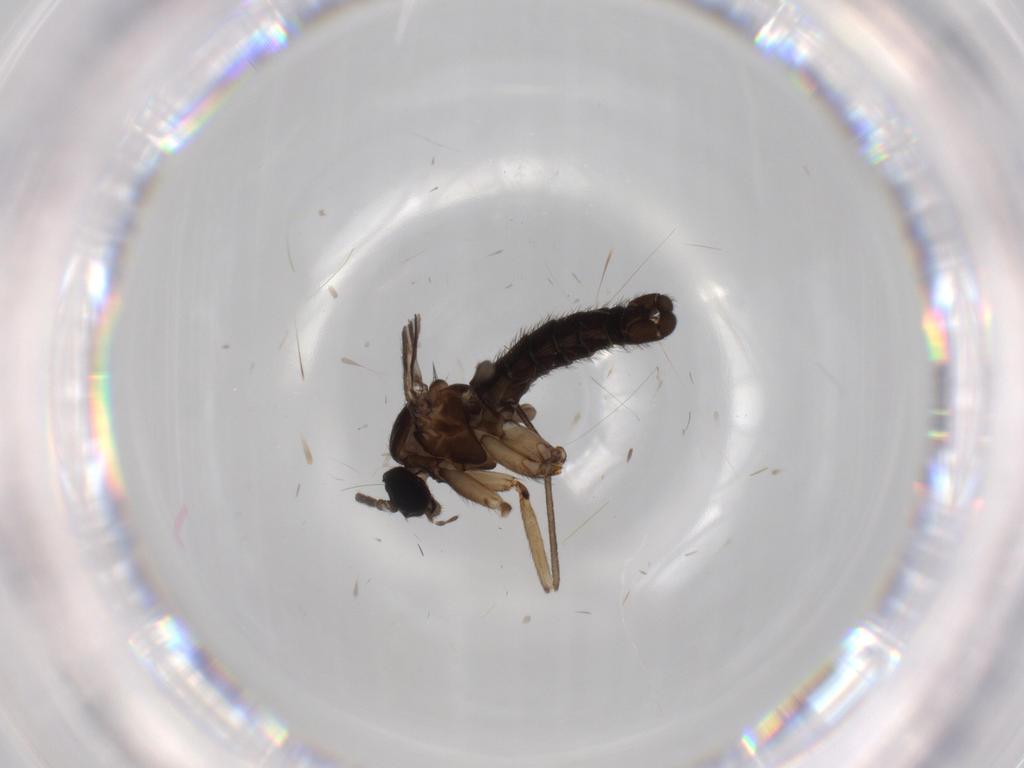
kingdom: Animalia
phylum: Arthropoda
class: Insecta
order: Diptera
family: Sciaridae
